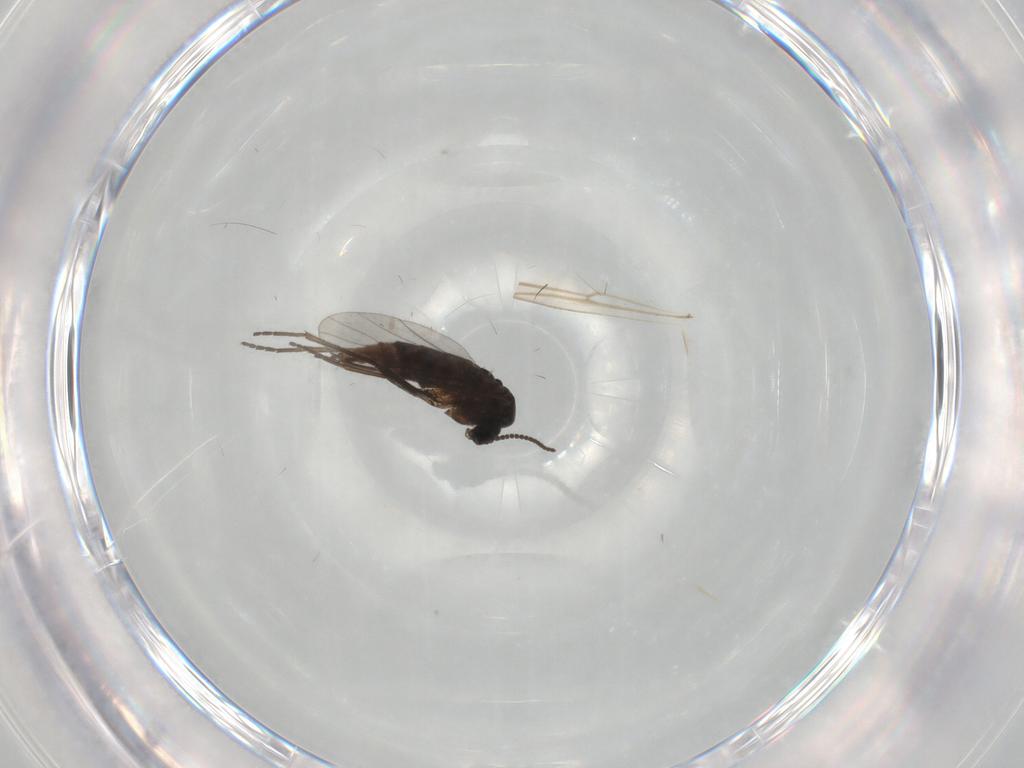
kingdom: Animalia
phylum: Arthropoda
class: Insecta
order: Diptera
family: Sciaridae
